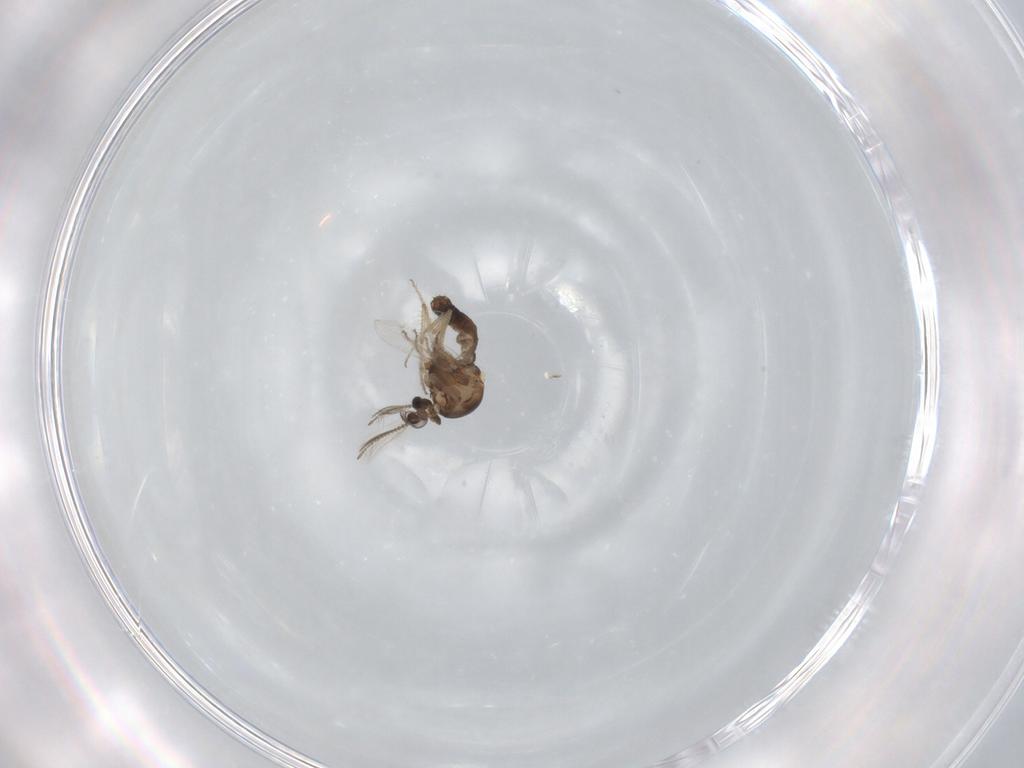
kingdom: Animalia
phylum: Arthropoda
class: Insecta
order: Diptera
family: Ceratopogonidae
